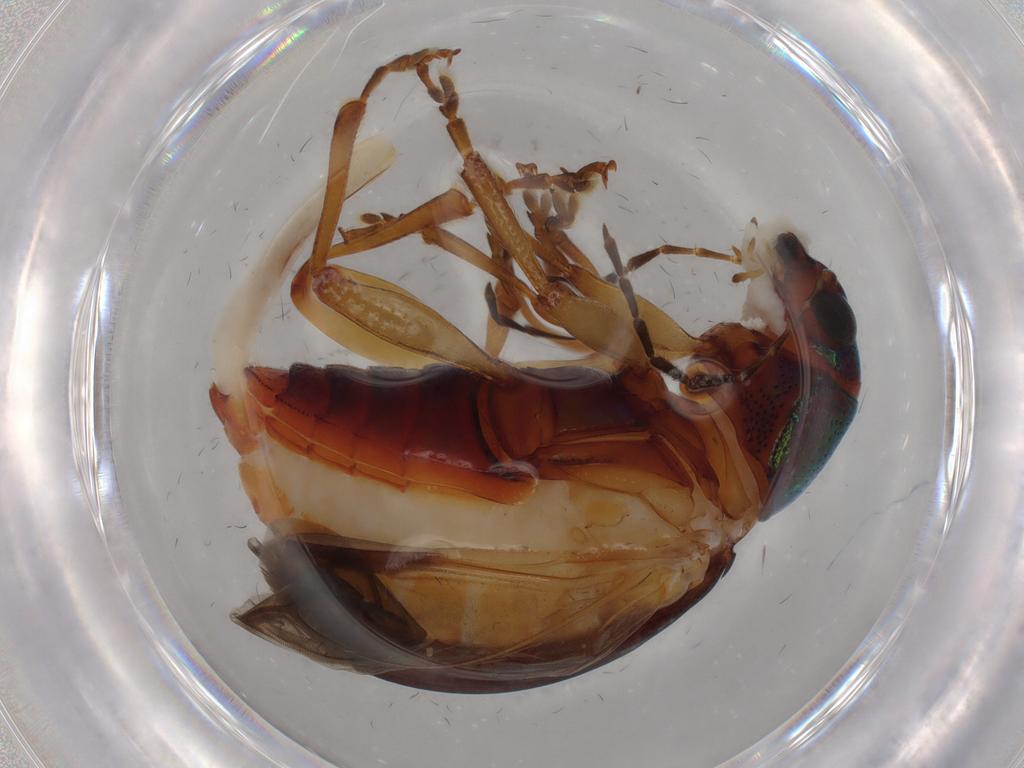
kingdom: Animalia
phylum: Arthropoda
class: Insecta
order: Coleoptera
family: Chrysomelidae
